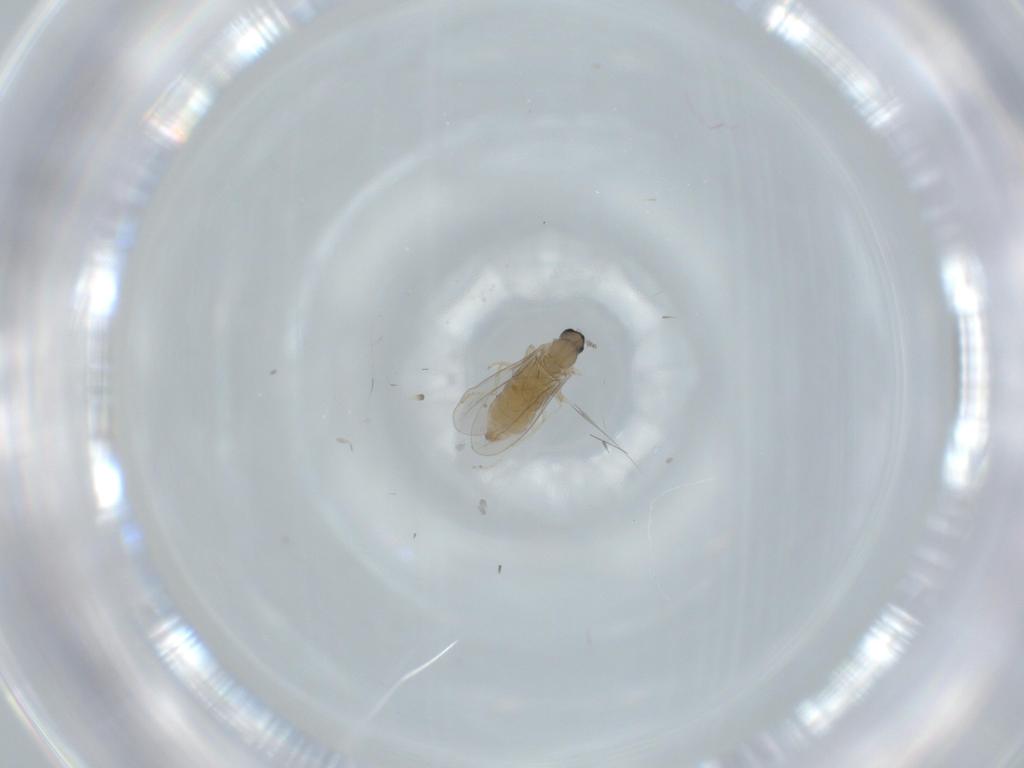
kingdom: Animalia
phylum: Arthropoda
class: Insecta
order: Diptera
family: Cecidomyiidae
